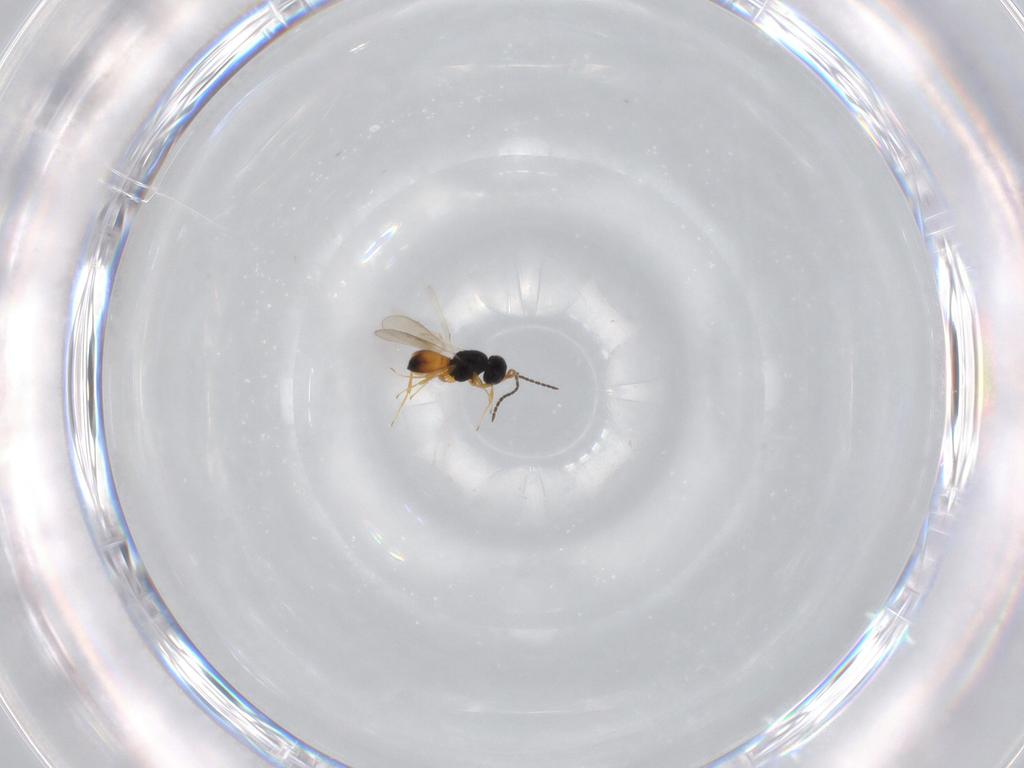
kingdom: Animalia
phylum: Arthropoda
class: Insecta
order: Hymenoptera
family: Scelionidae
